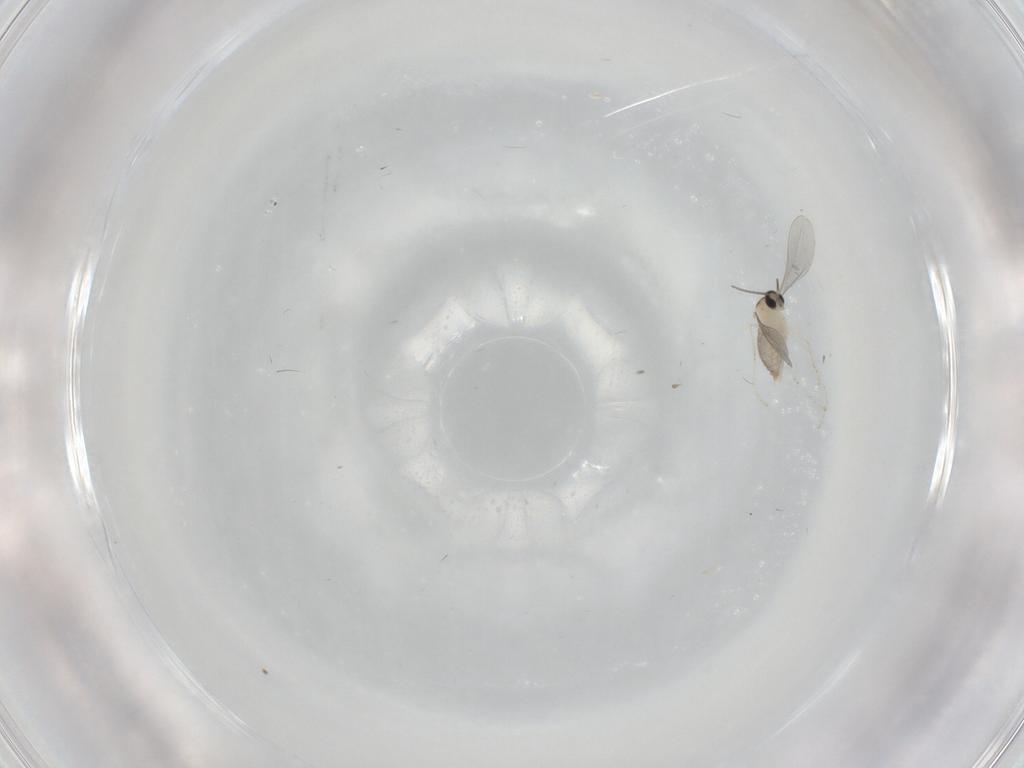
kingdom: Animalia
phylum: Arthropoda
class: Insecta
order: Diptera
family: Cecidomyiidae
